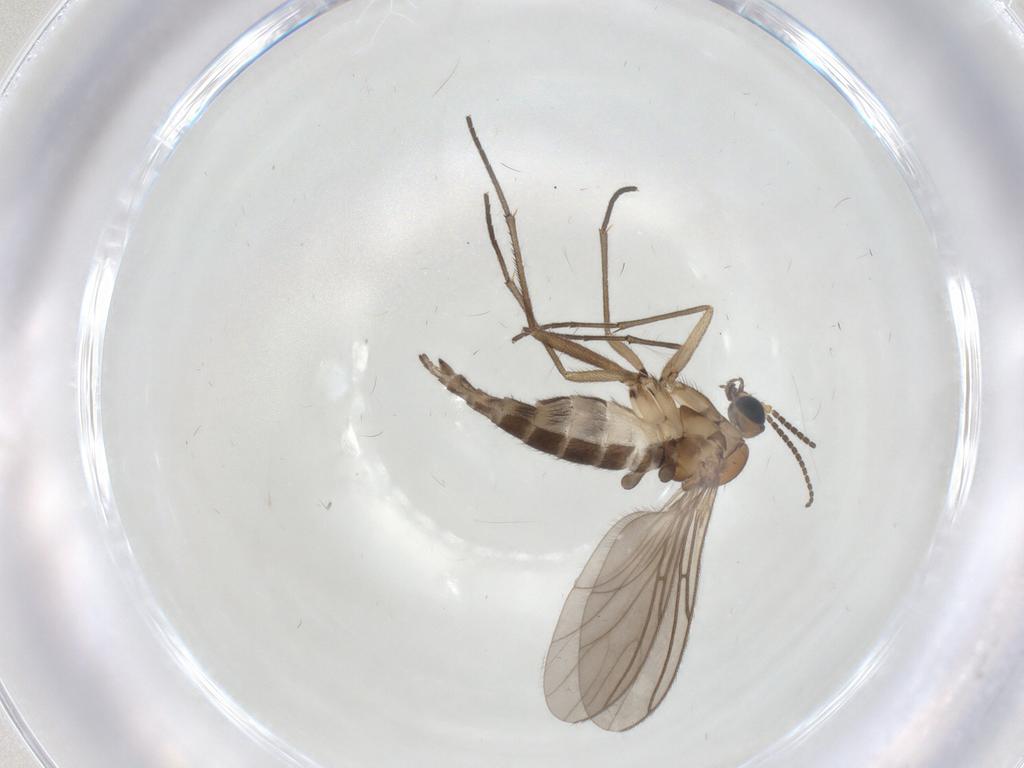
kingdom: Animalia
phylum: Arthropoda
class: Insecta
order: Diptera
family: Sciaridae
